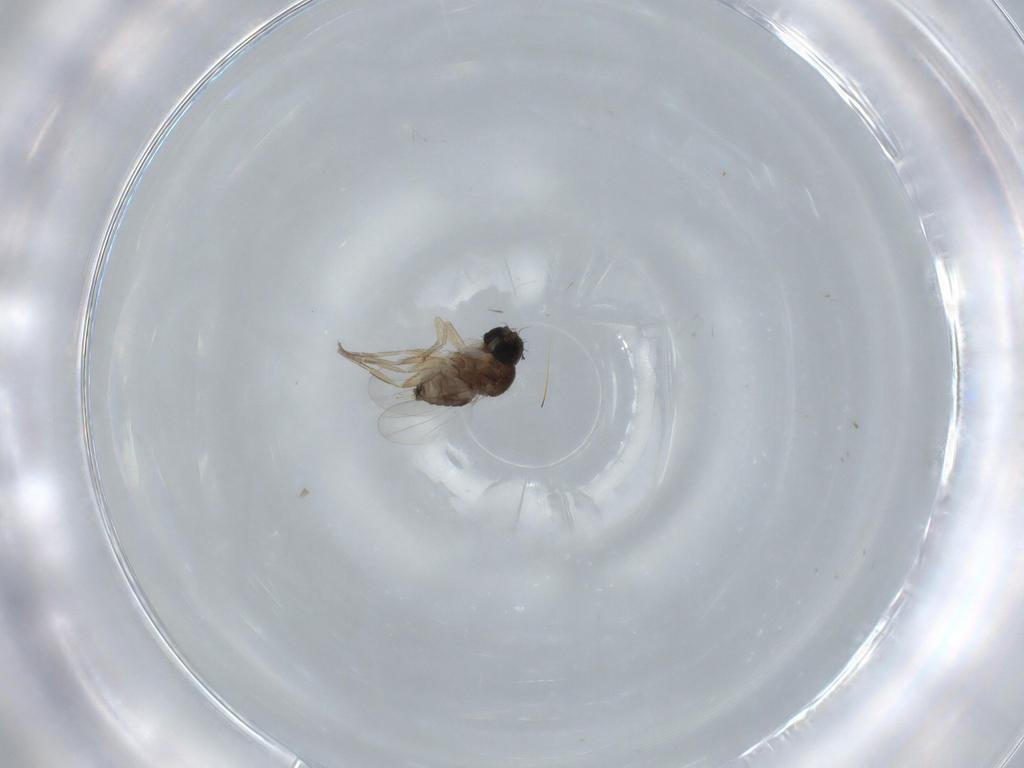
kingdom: Animalia
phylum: Arthropoda
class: Insecta
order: Diptera
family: Phoridae
